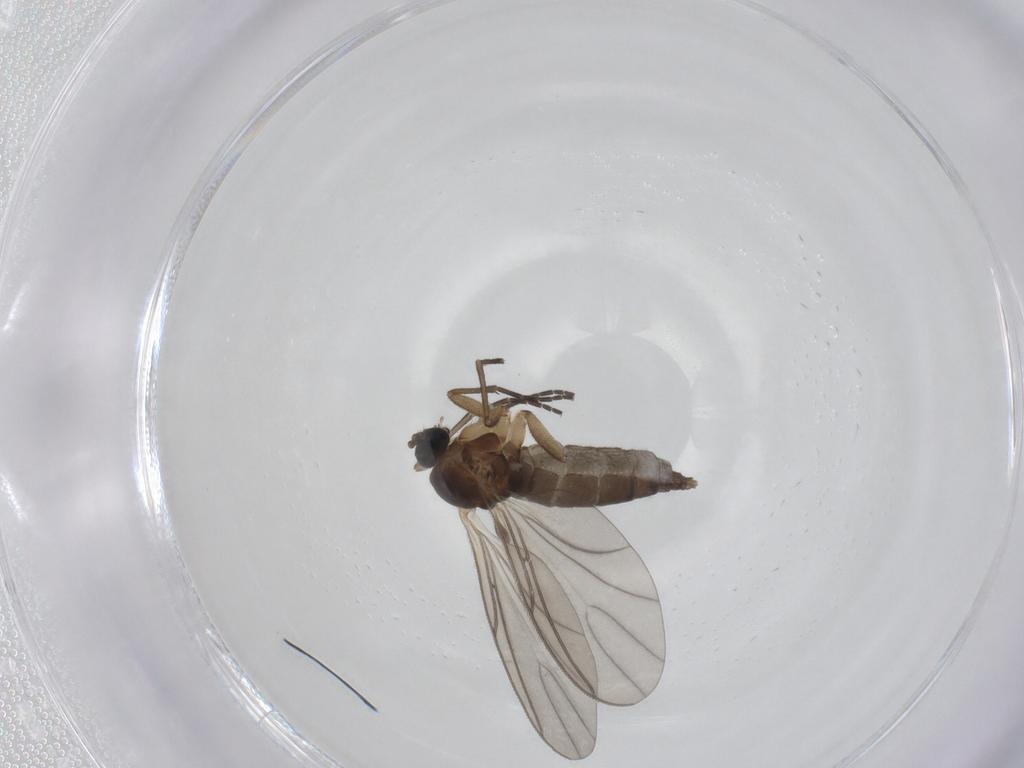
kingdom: Animalia
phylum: Arthropoda
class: Insecta
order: Diptera
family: Sciaridae
